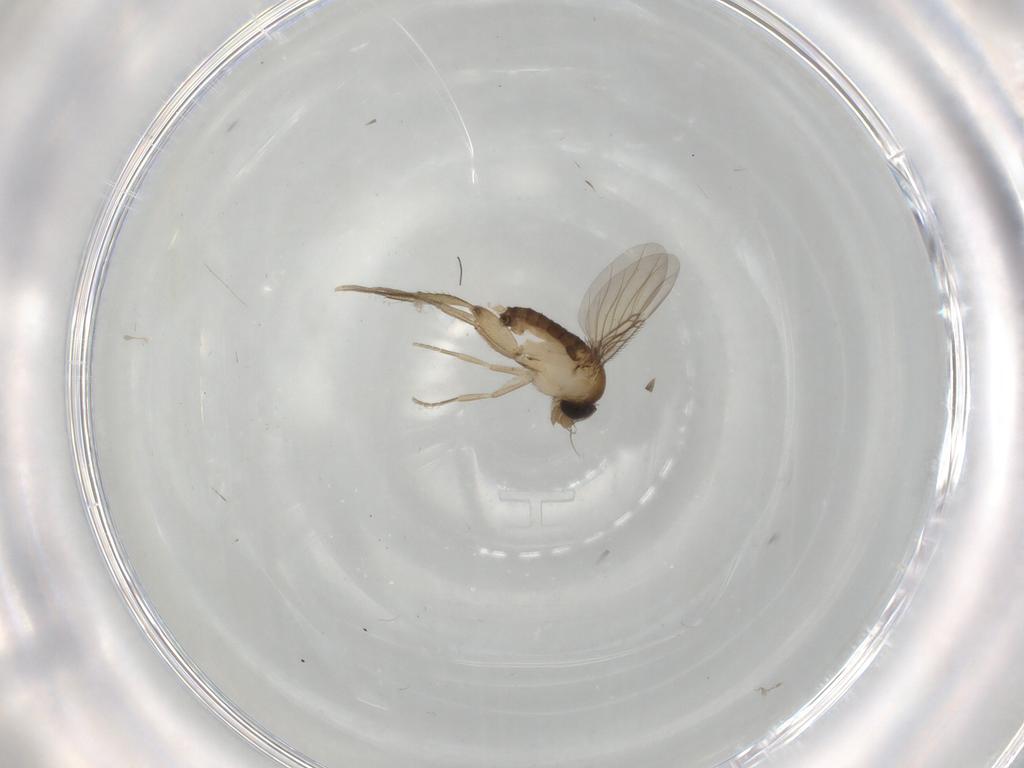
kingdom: Animalia
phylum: Arthropoda
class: Insecta
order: Diptera
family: Phoridae
